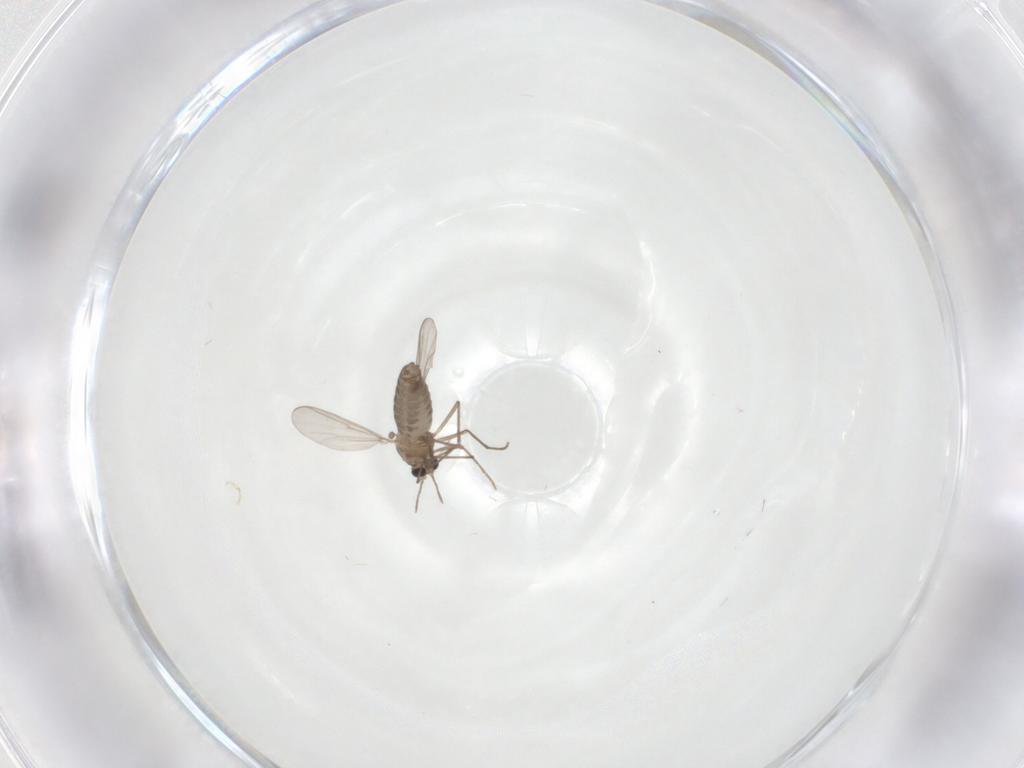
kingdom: Animalia
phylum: Arthropoda
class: Insecta
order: Diptera
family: Chironomidae
